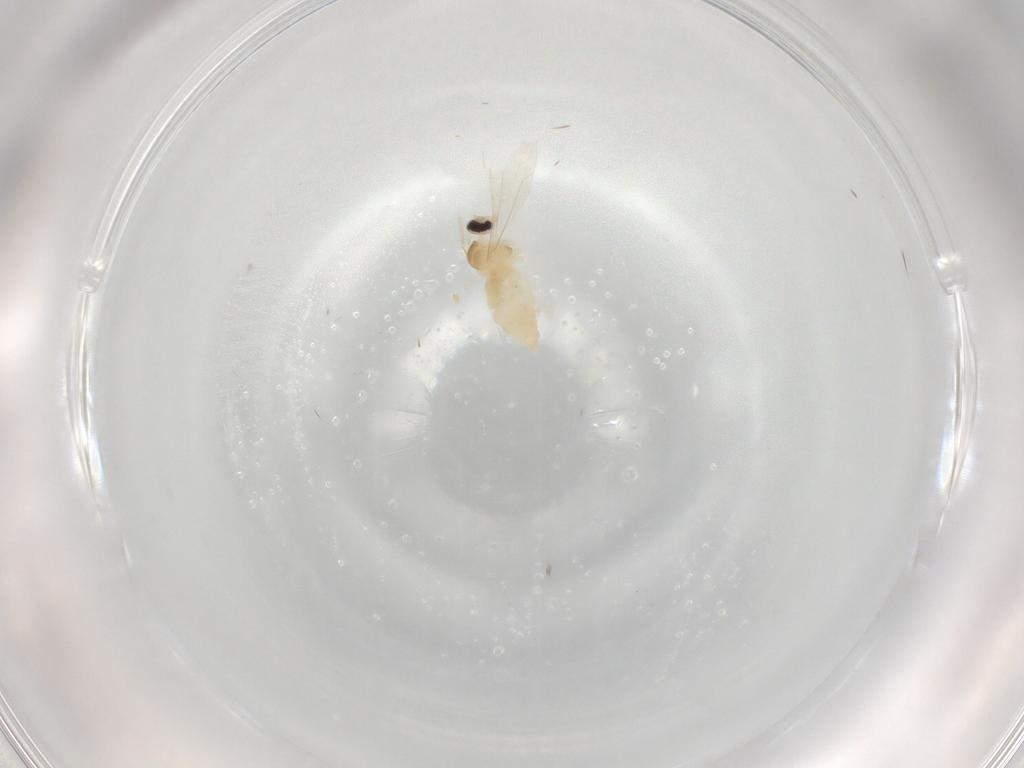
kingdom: Animalia
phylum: Arthropoda
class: Insecta
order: Diptera
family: Cecidomyiidae
